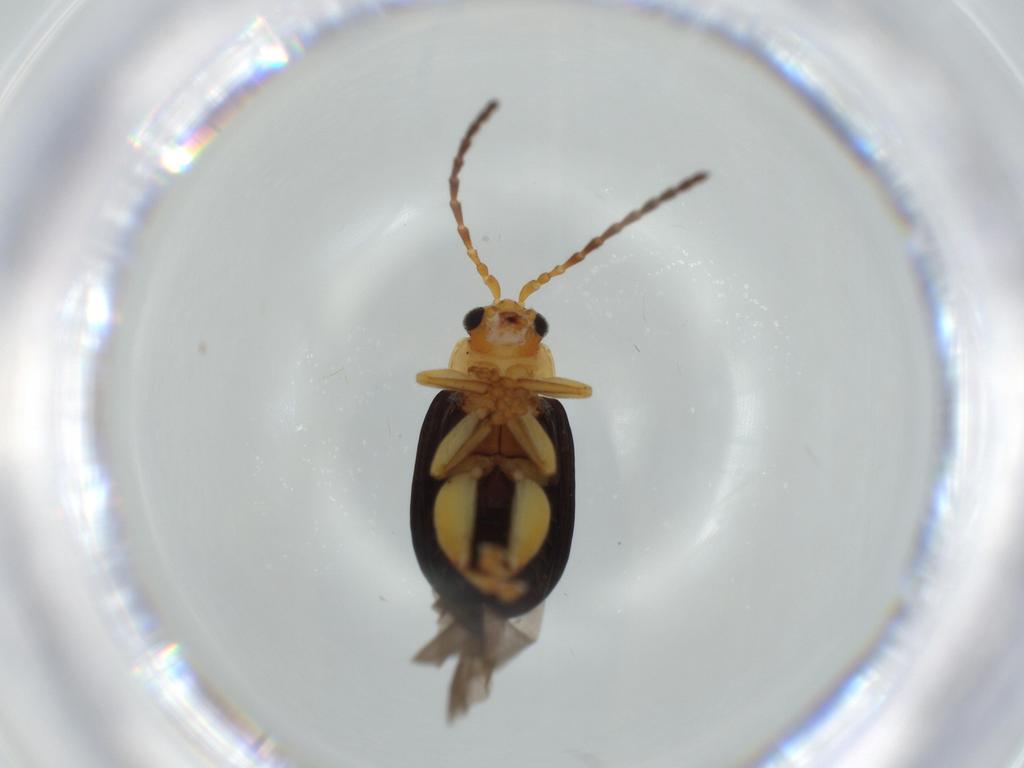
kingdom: Animalia
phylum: Arthropoda
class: Insecta
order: Coleoptera
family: Chrysomelidae
